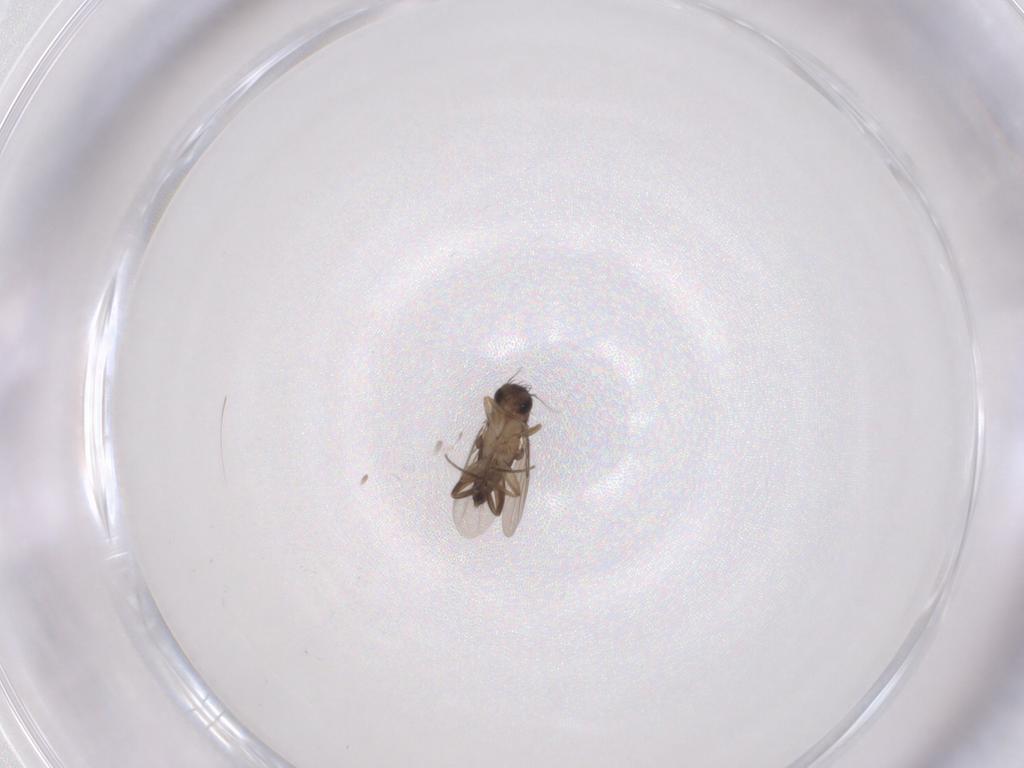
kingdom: Animalia
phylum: Arthropoda
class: Insecta
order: Diptera
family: Phoridae
